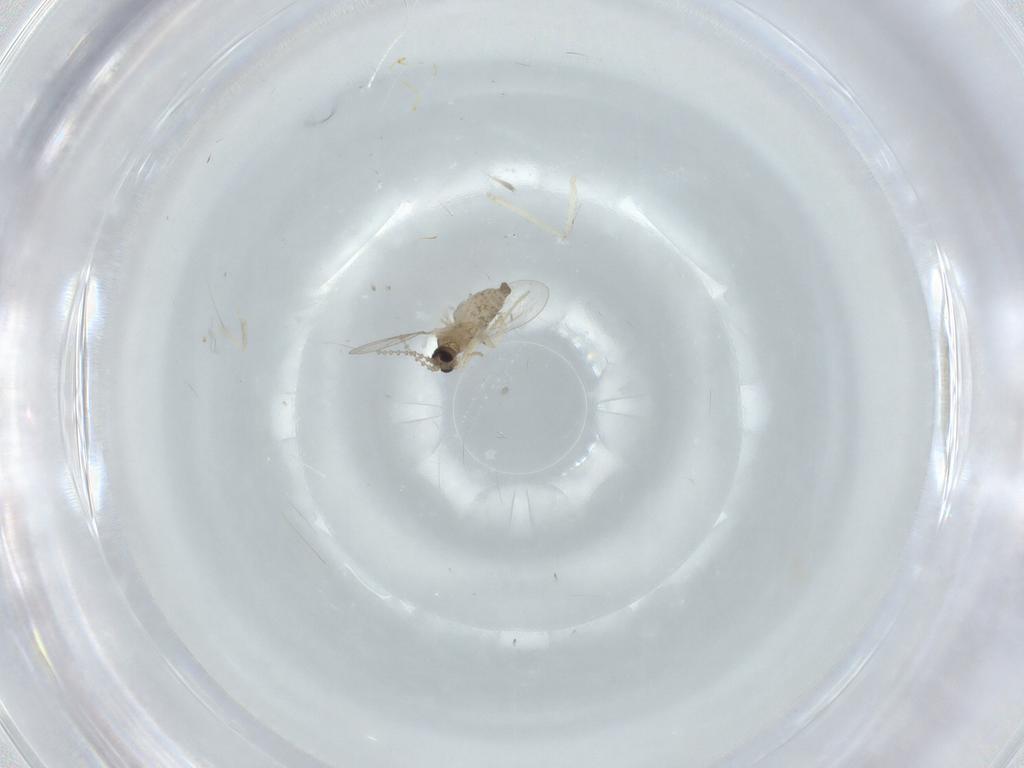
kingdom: Animalia
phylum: Arthropoda
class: Insecta
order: Diptera
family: Cecidomyiidae
